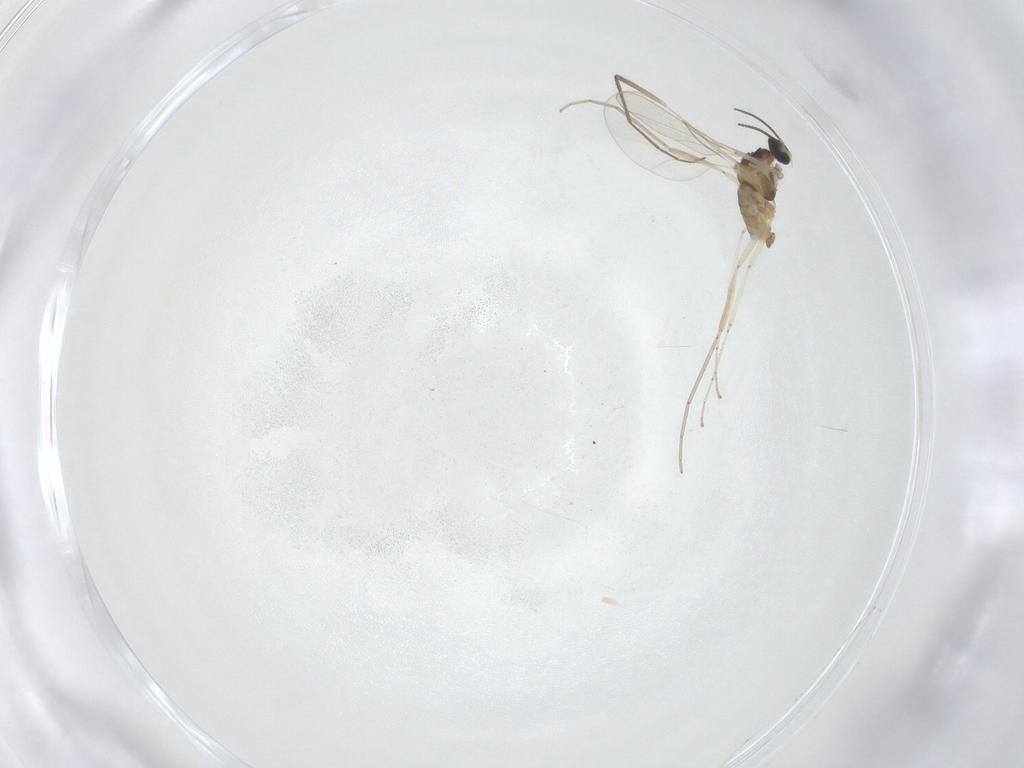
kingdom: Animalia
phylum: Arthropoda
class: Insecta
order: Diptera
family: Cecidomyiidae
